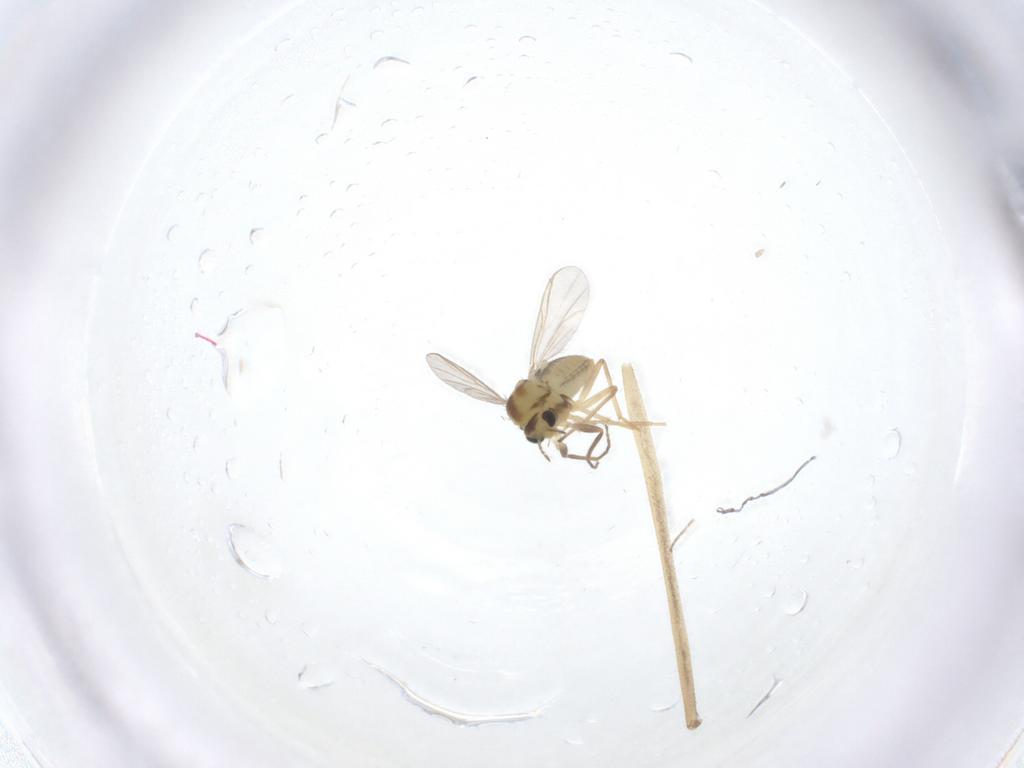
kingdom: Animalia
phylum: Arthropoda
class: Insecta
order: Diptera
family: Chironomidae
